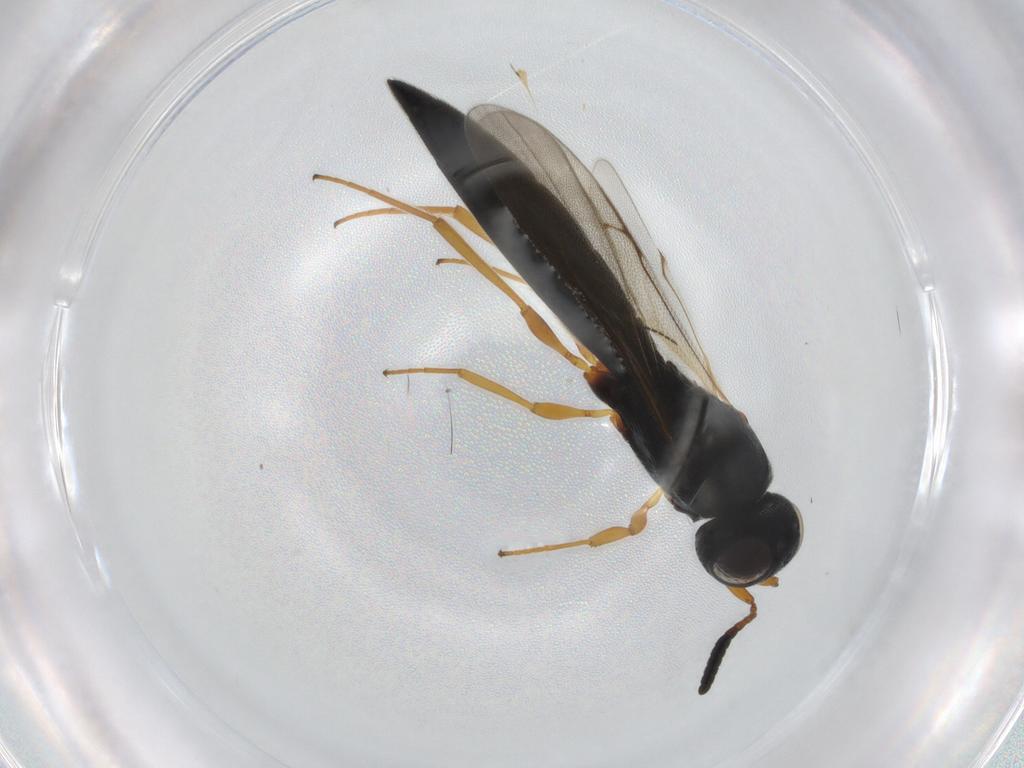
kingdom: Animalia
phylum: Arthropoda
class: Insecta
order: Hymenoptera
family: Scelionidae
